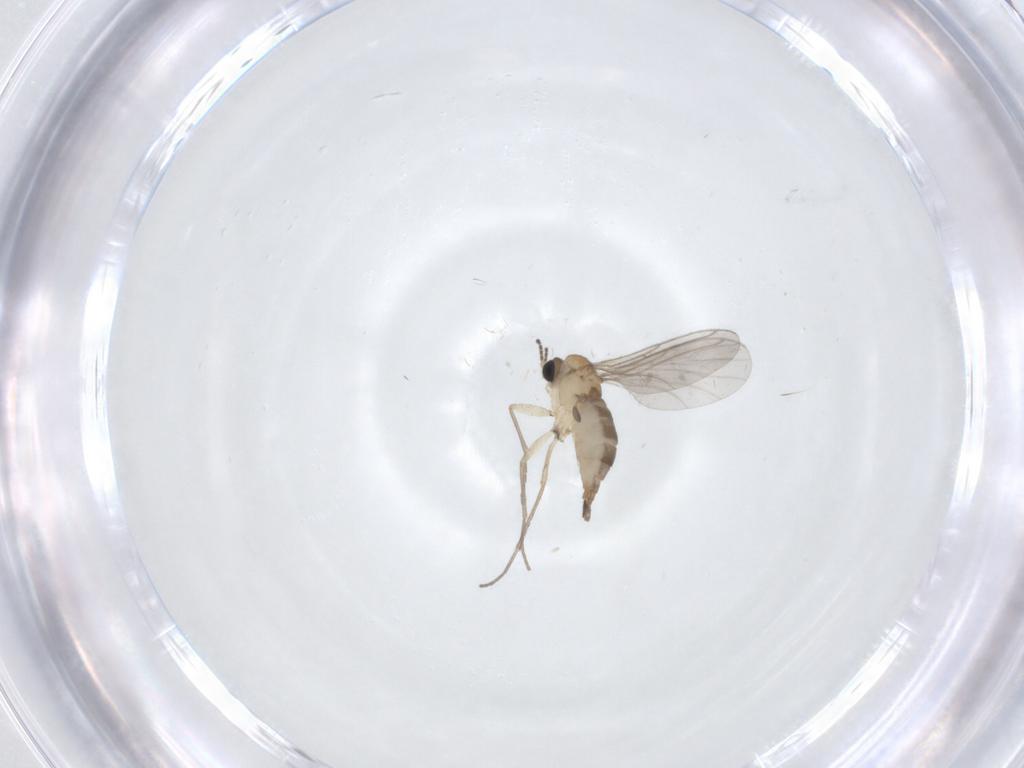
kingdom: Animalia
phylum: Arthropoda
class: Insecta
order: Diptera
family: Sciaridae
